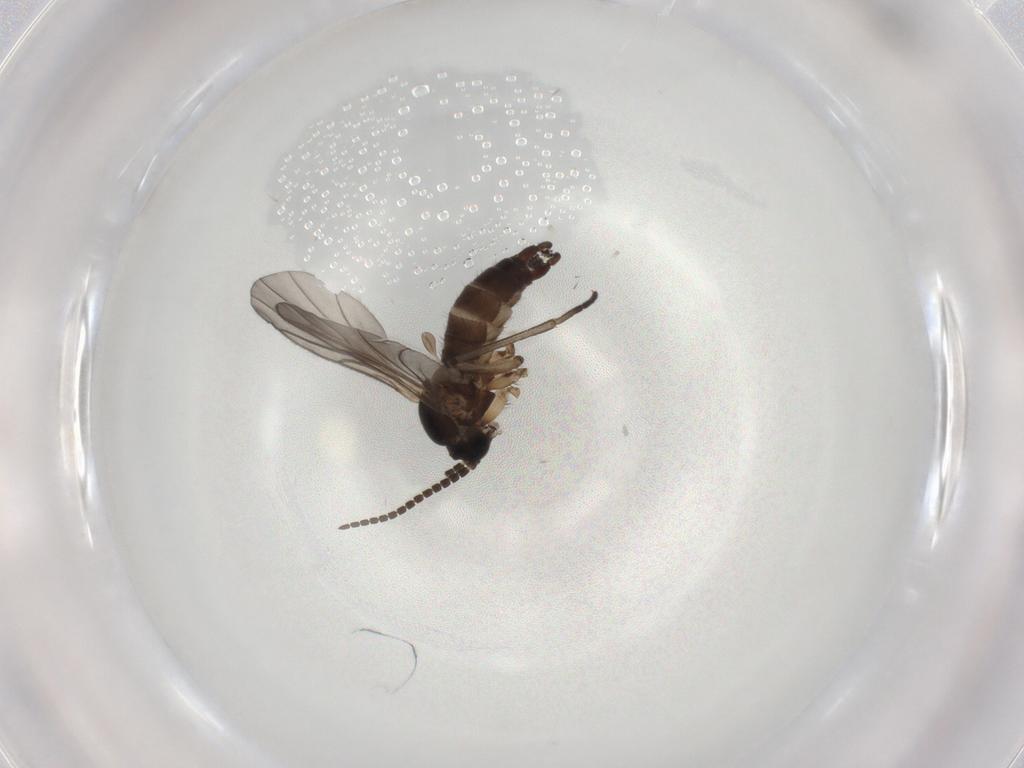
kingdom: Animalia
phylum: Arthropoda
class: Insecta
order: Diptera
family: Sciaridae
